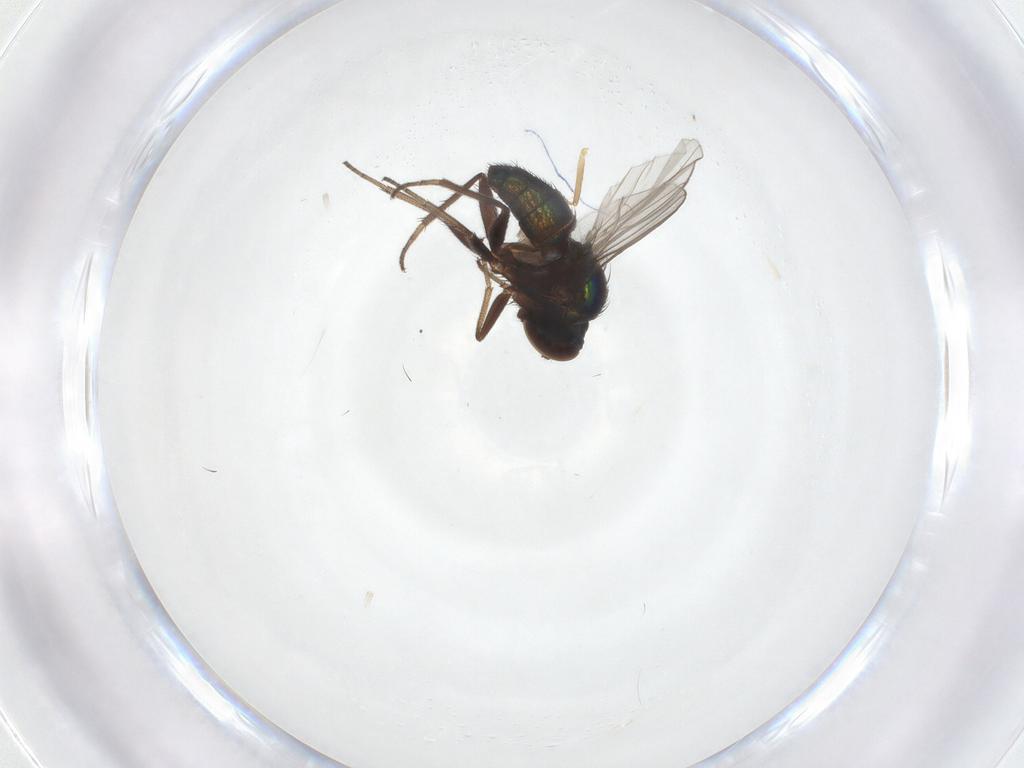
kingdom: Animalia
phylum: Arthropoda
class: Insecta
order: Diptera
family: Dolichopodidae
